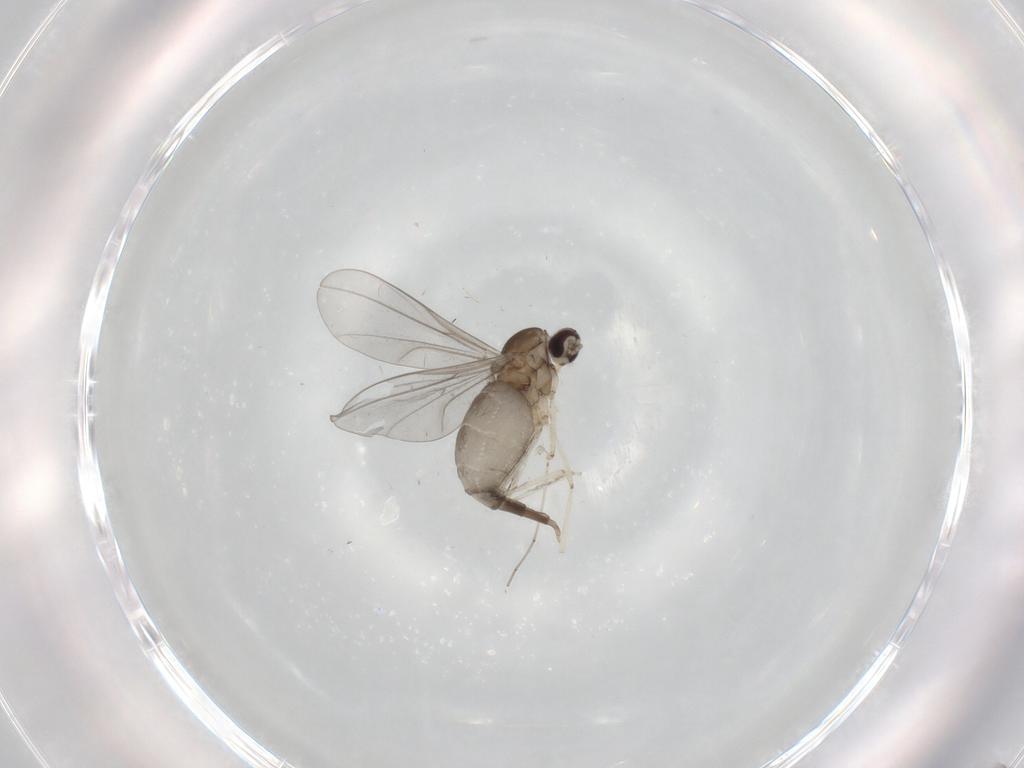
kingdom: Animalia
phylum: Arthropoda
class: Insecta
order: Diptera
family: Cecidomyiidae
